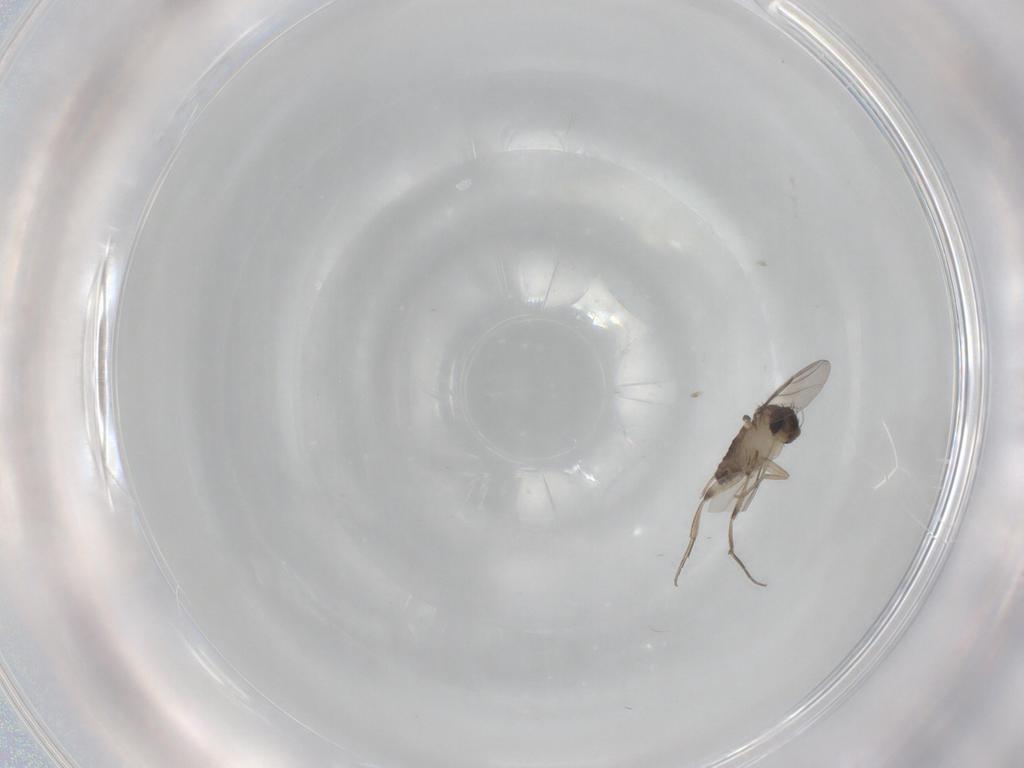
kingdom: Animalia
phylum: Arthropoda
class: Insecta
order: Diptera
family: Phoridae
